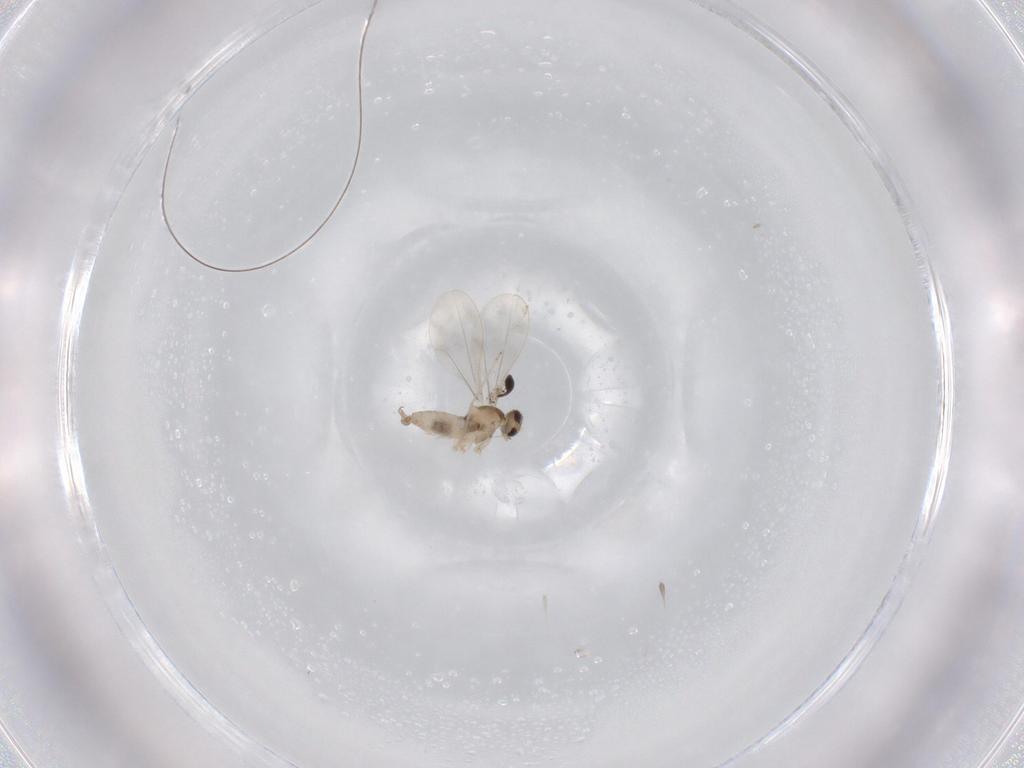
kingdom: Animalia
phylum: Arthropoda
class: Insecta
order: Diptera
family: Cecidomyiidae
